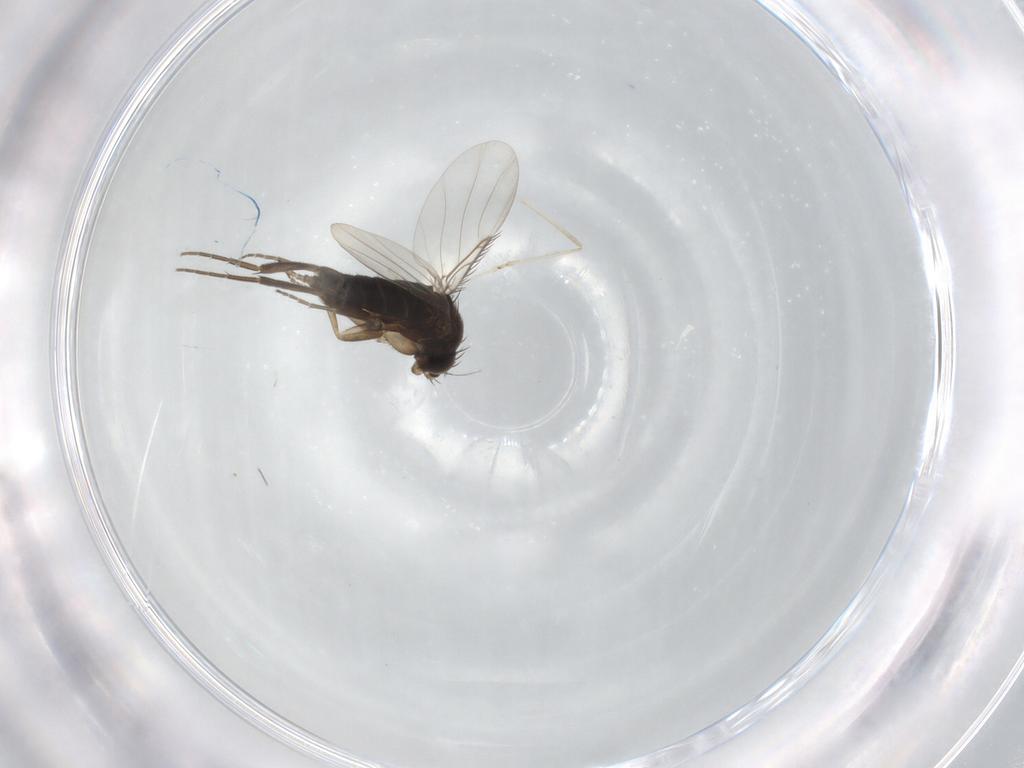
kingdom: Animalia
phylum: Arthropoda
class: Insecta
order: Diptera
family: Phoridae
